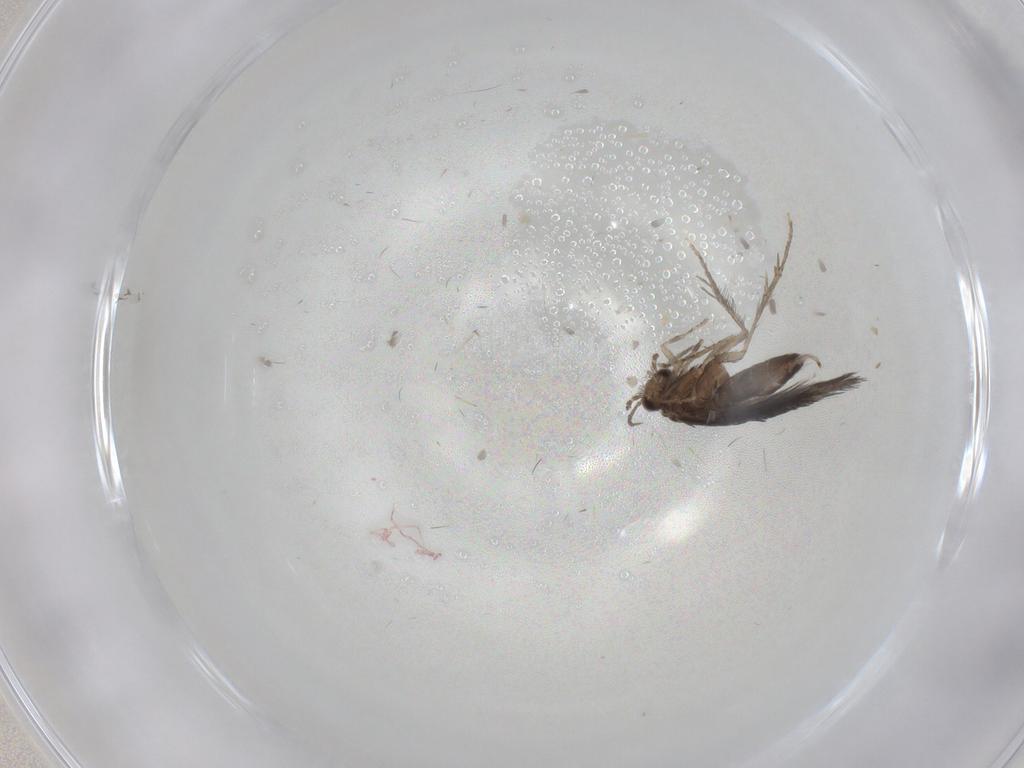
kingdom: Animalia
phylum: Arthropoda
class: Insecta
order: Trichoptera
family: Hydroptilidae
